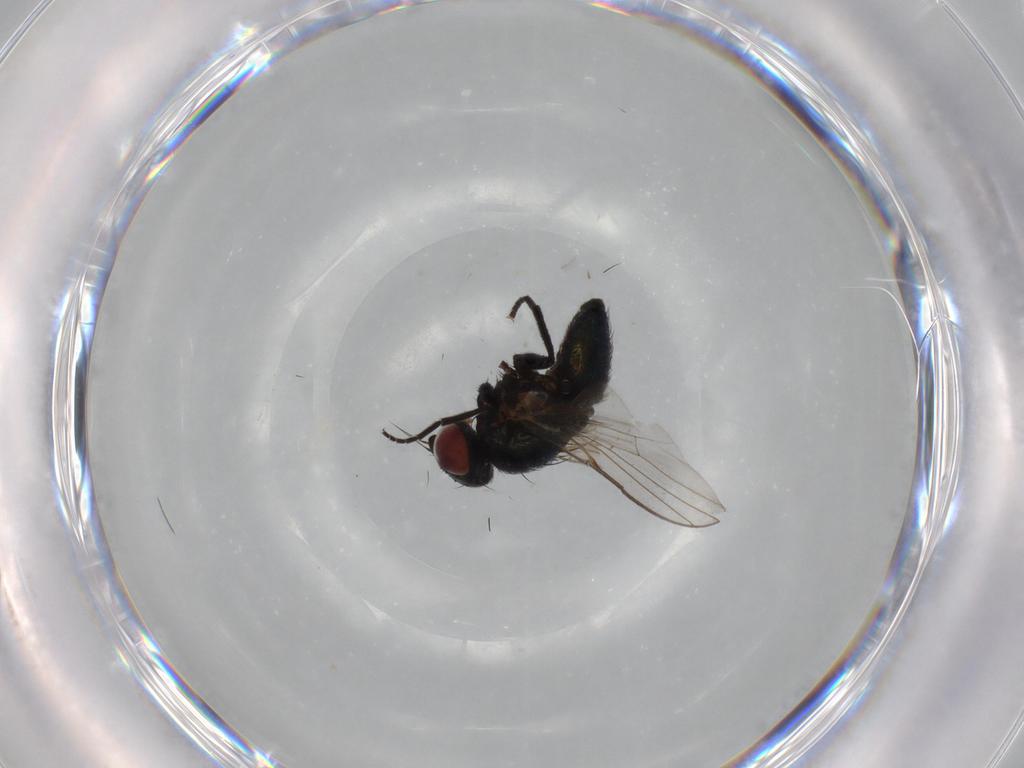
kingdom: Animalia
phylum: Arthropoda
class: Insecta
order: Diptera
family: Agromyzidae
